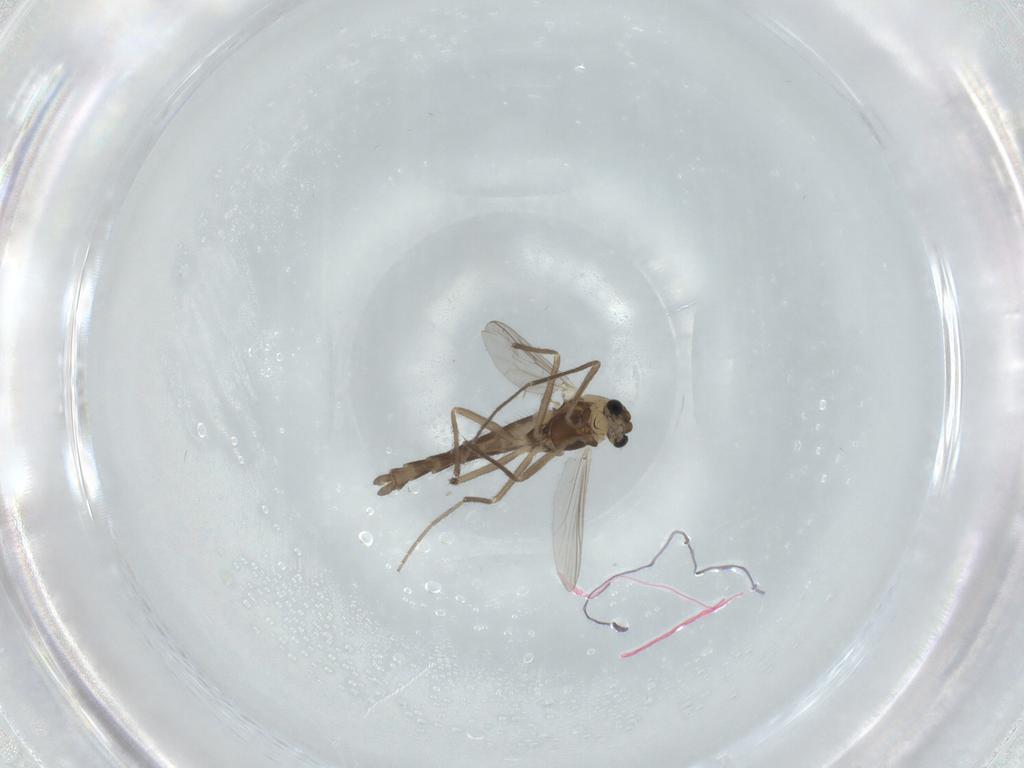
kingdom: Animalia
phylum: Arthropoda
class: Insecta
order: Diptera
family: Chironomidae
